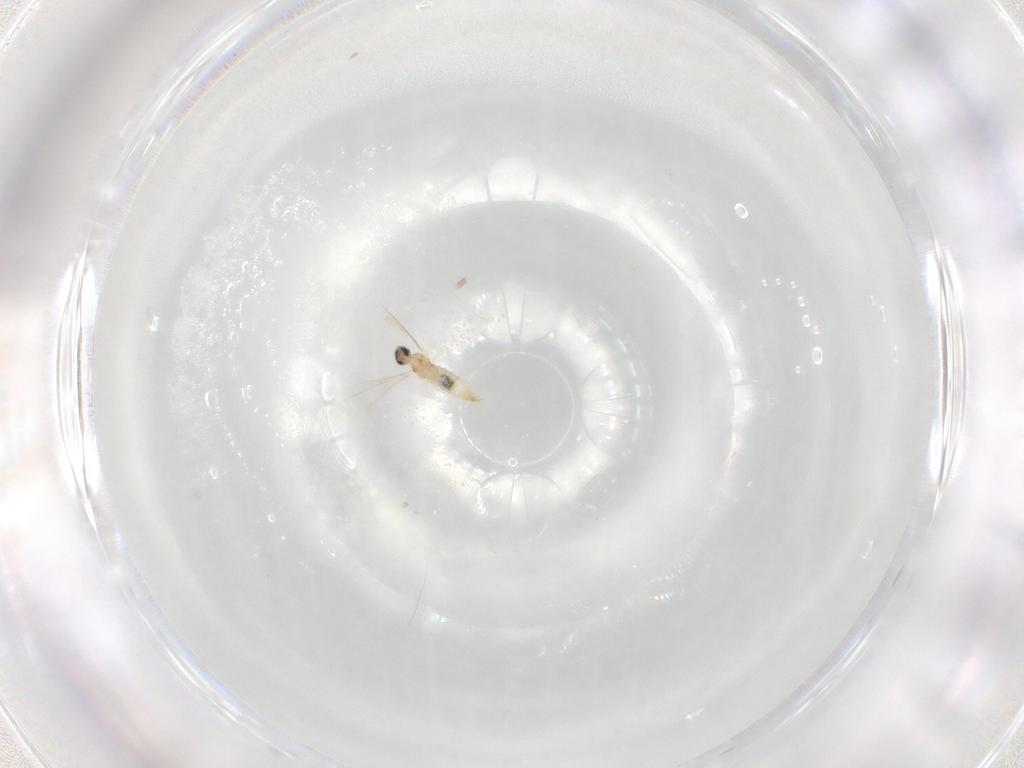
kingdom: Animalia
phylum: Arthropoda
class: Insecta
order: Diptera
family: Cecidomyiidae
